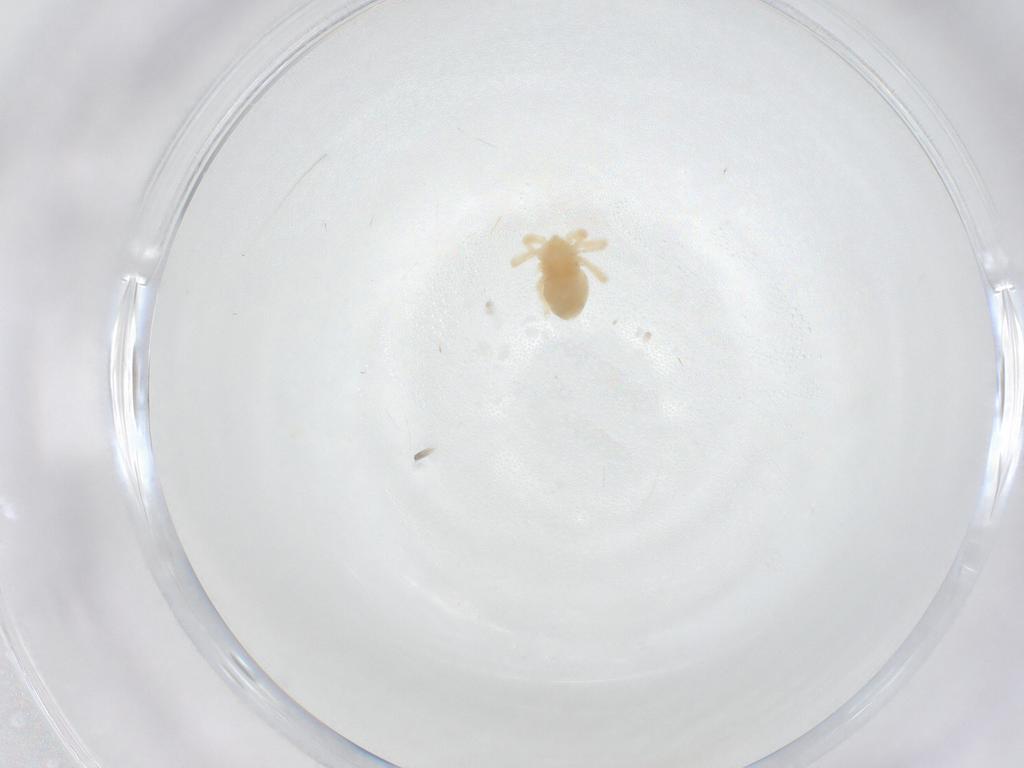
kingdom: Animalia
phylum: Arthropoda
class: Arachnida
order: Trombidiformes
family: Anystidae
